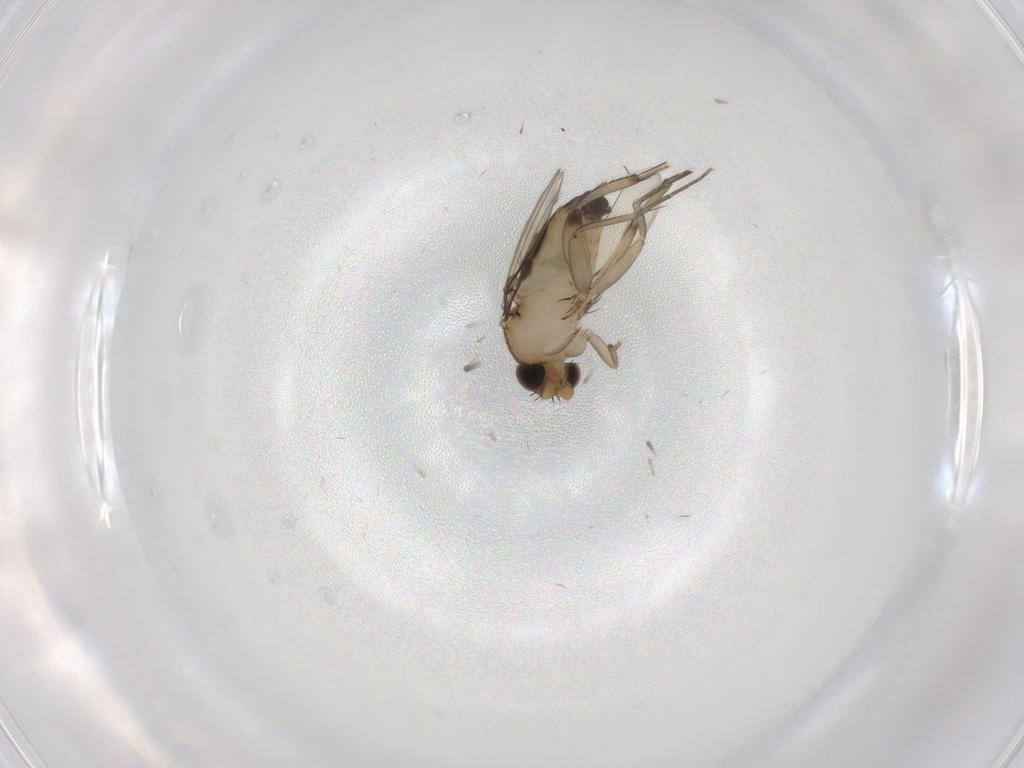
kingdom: Animalia
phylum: Arthropoda
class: Insecta
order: Diptera
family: Phoridae
